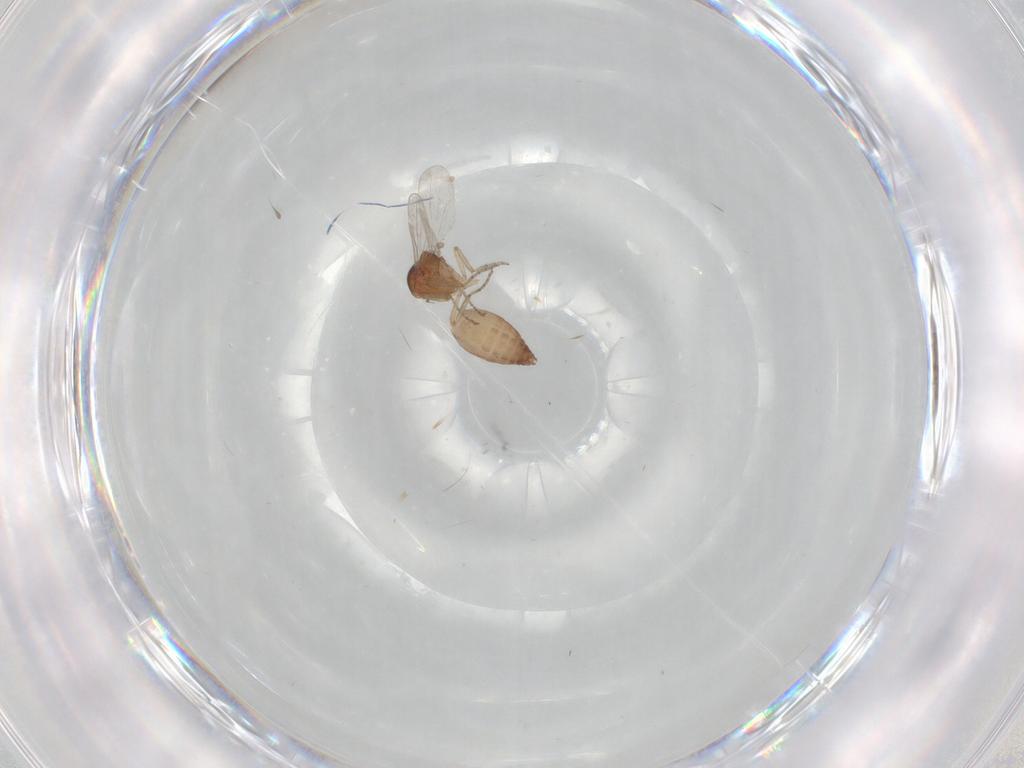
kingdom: Animalia
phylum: Arthropoda
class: Insecta
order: Diptera
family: Ceratopogonidae
